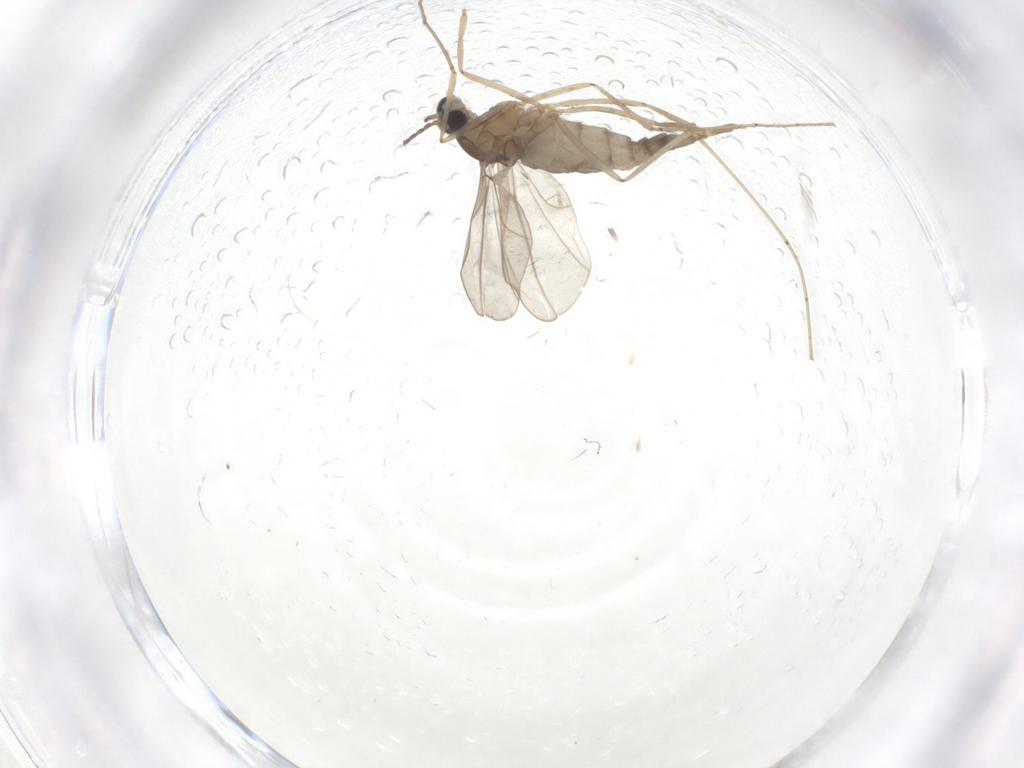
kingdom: Animalia
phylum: Arthropoda
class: Insecta
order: Diptera
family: Cecidomyiidae
